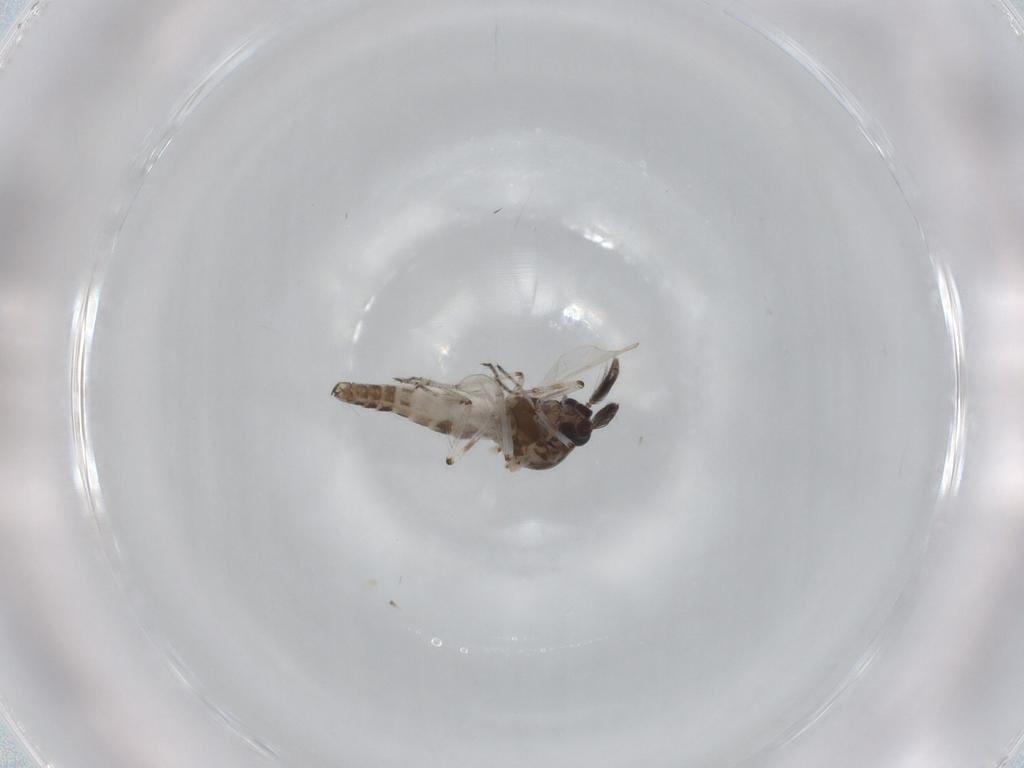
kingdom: Animalia
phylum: Arthropoda
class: Insecta
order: Diptera
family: Ceratopogonidae
